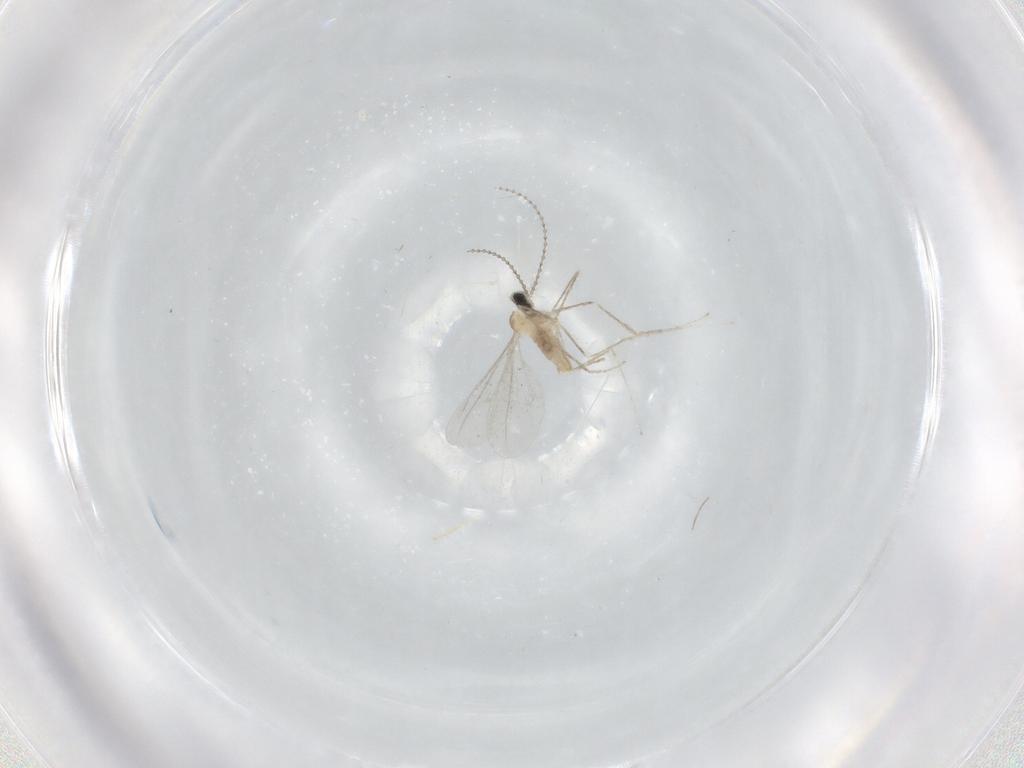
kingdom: Animalia
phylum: Arthropoda
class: Insecta
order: Diptera
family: Cecidomyiidae
